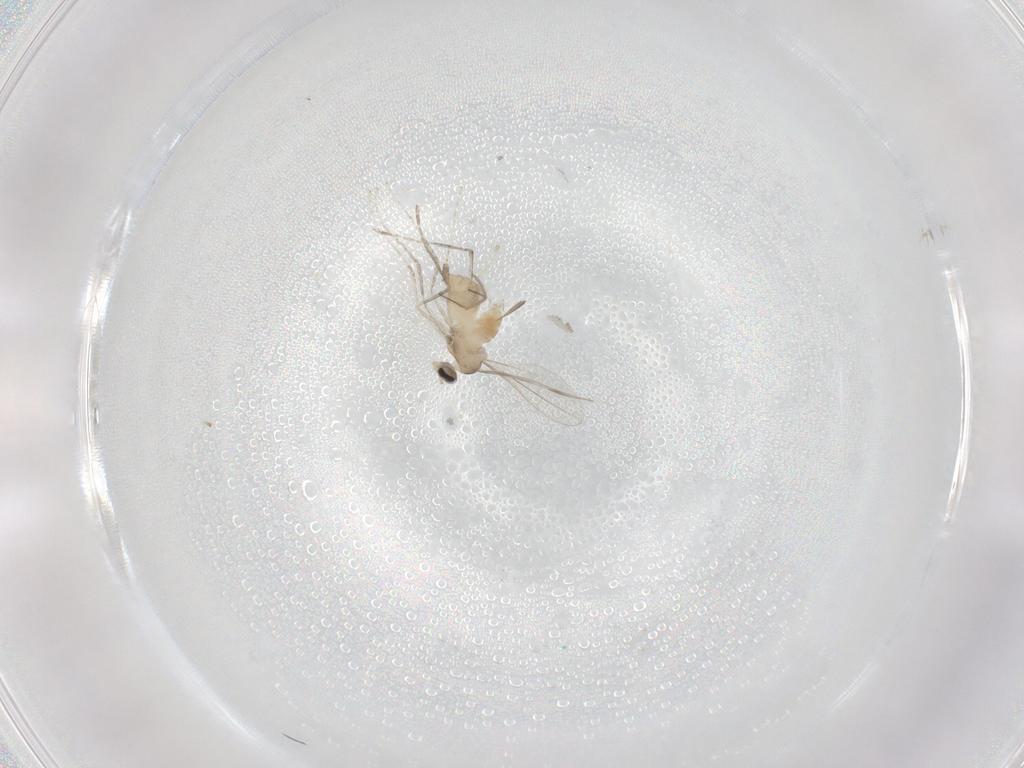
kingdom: Animalia
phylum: Arthropoda
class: Insecta
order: Diptera
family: Cecidomyiidae
